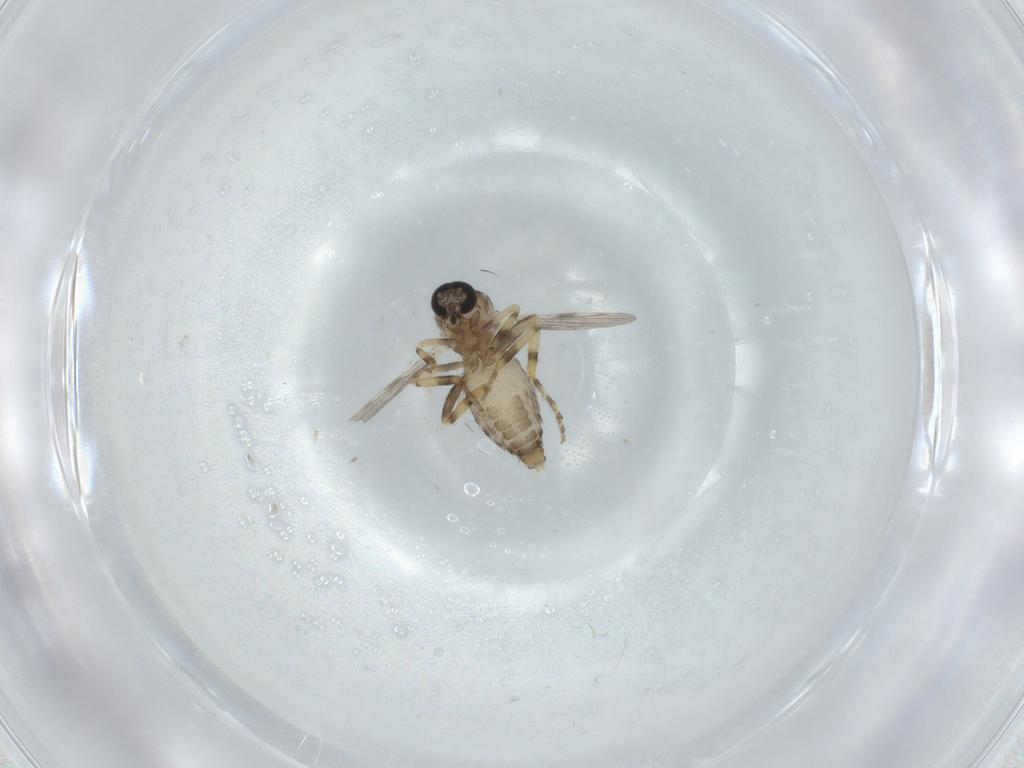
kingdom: Animalia
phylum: Arthropoda
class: Insecta
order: Diptera
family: Ceratopogonidae
